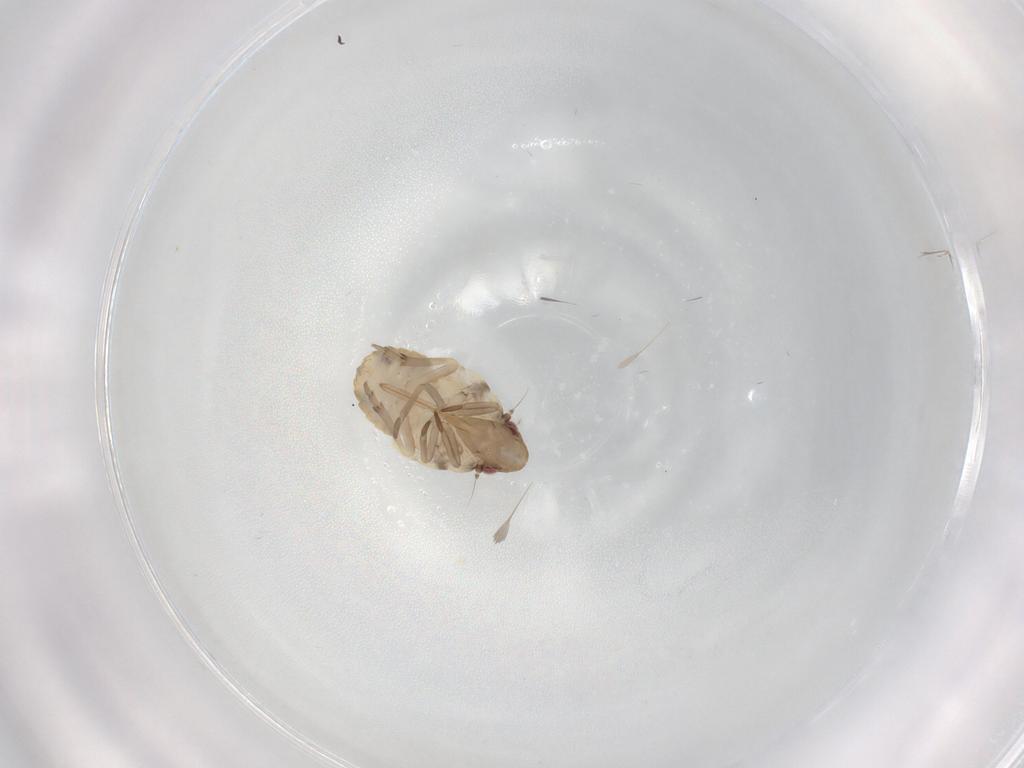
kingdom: Animalia
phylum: Arthropoda
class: Insecta
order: Hemiptera
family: Flatidae
